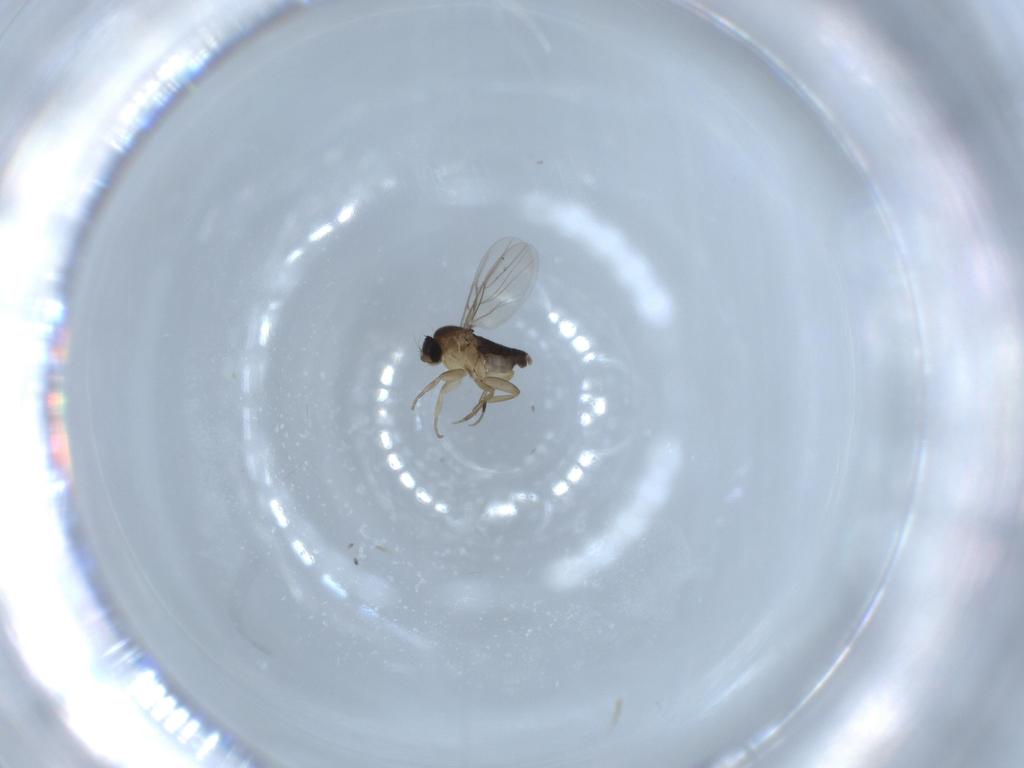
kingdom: Animalia
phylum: Arthropoda
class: Insecta
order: Diptera
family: Phoridae
